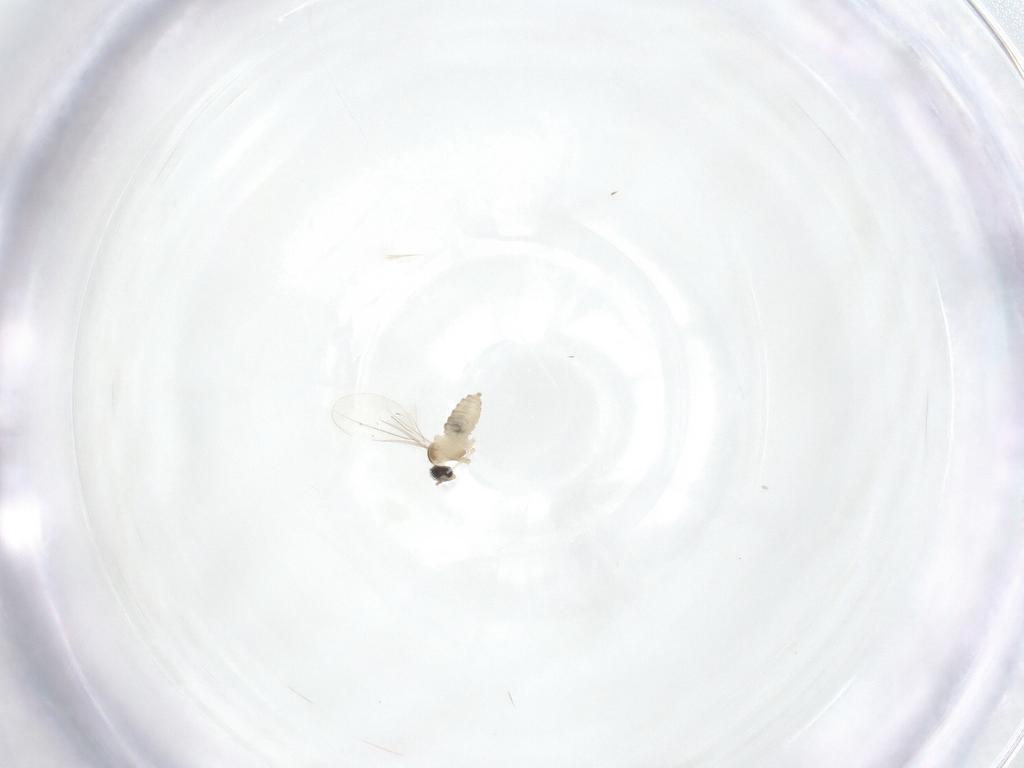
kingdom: Animalia
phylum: Arthropoda
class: Insecta
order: Diptera
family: Cecidomyiidae
